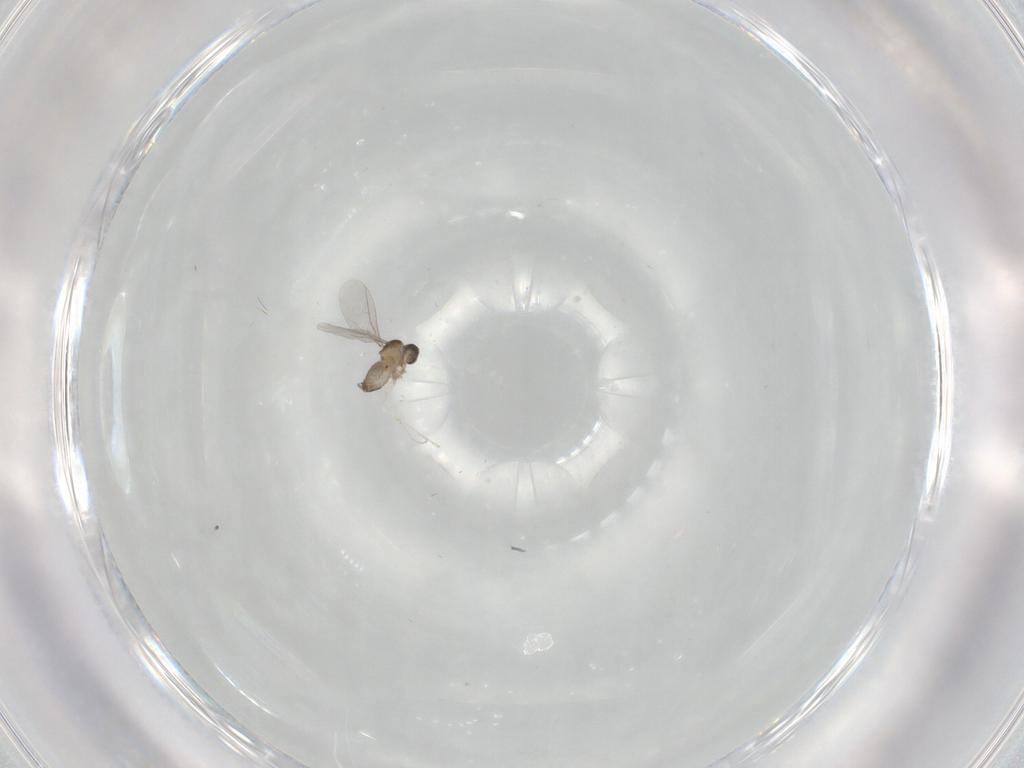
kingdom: Animalia
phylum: Arthropoda
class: Insecta
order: Diptera
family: Cecidomyiidae
